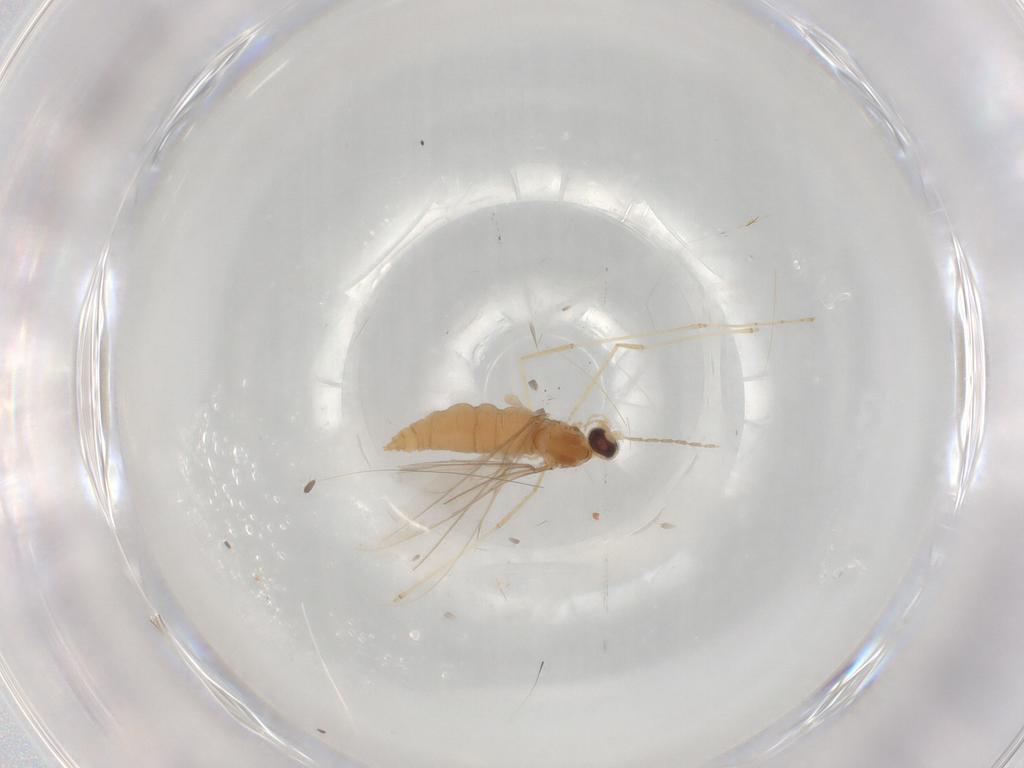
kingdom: Animalia
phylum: Arthropoda
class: Insecta
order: Diptera
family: Cecidomyiidae
